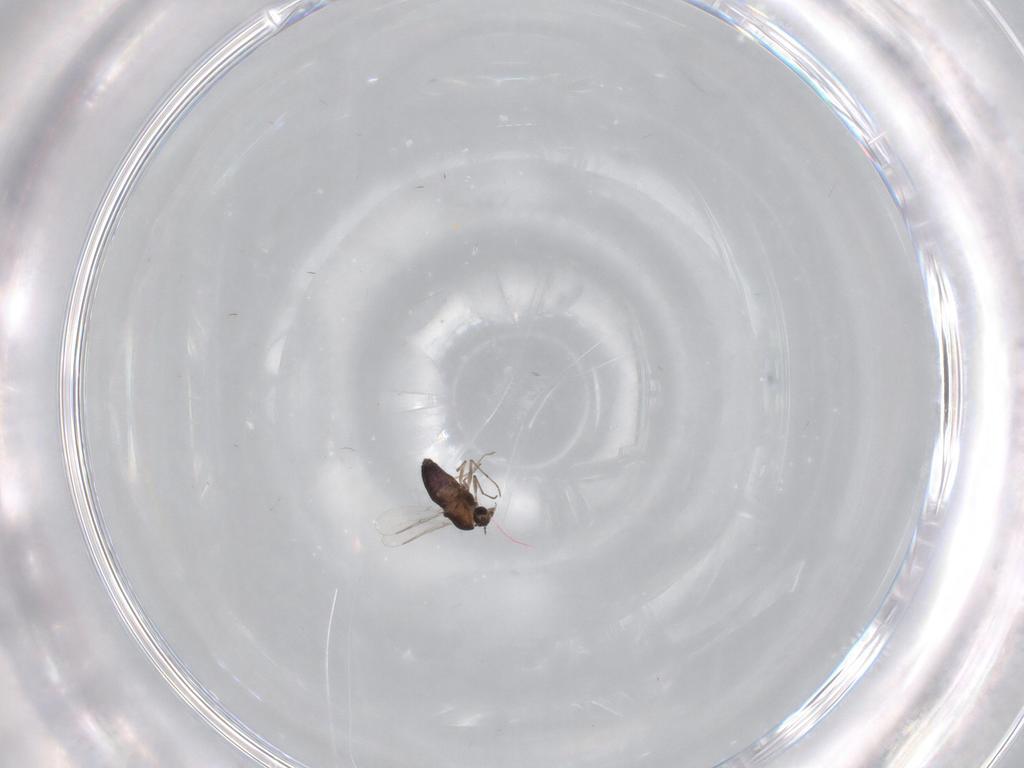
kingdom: Animalia
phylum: Arthropoda
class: Insecta
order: Diptera
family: Chironomidae
